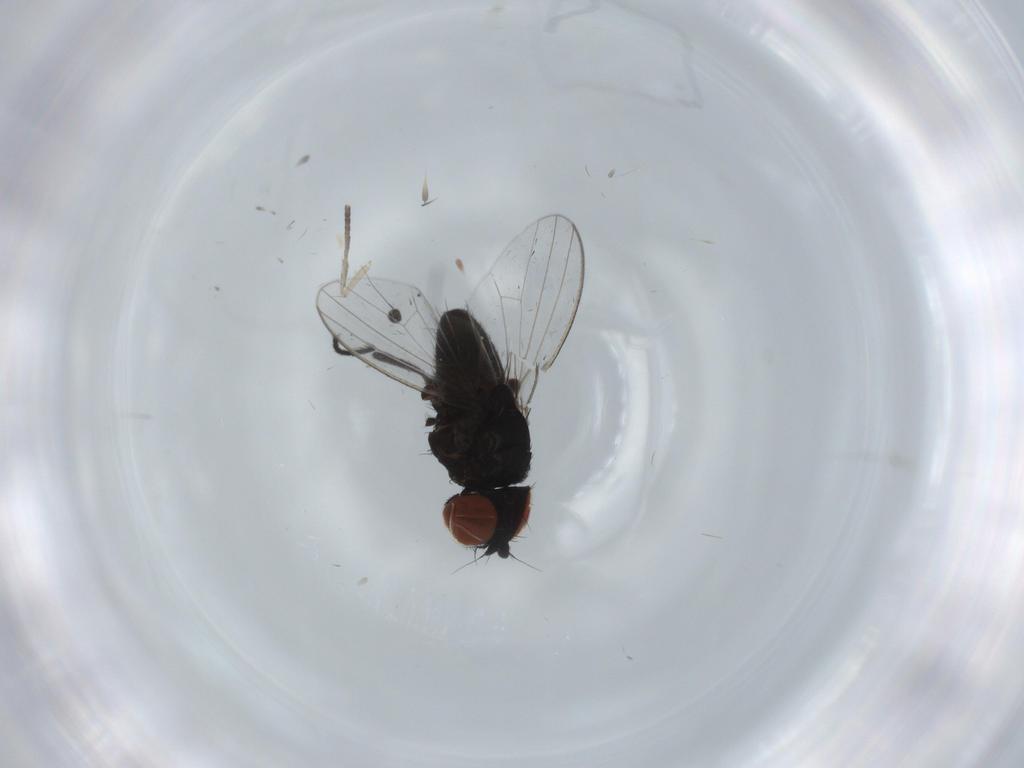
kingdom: Animalia
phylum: Arthropoda
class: Insecta
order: Diptera
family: Milichiidae
